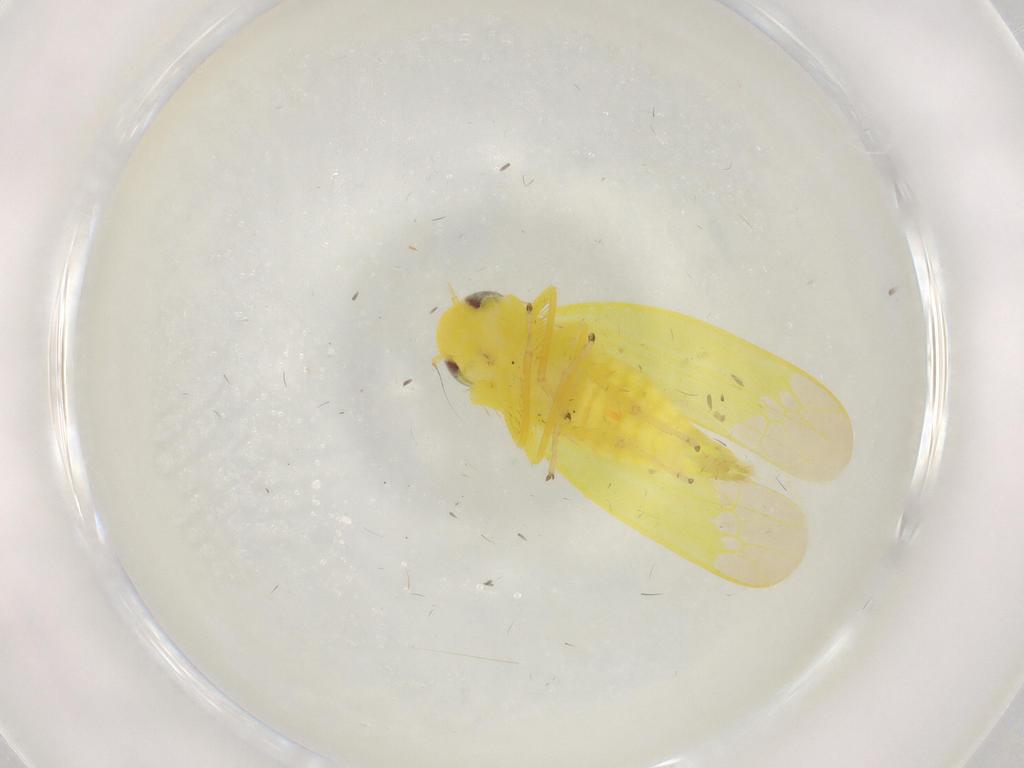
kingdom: Animalia
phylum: Arthropoda
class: Insecta
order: Hemiptera
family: Cicadellidae
